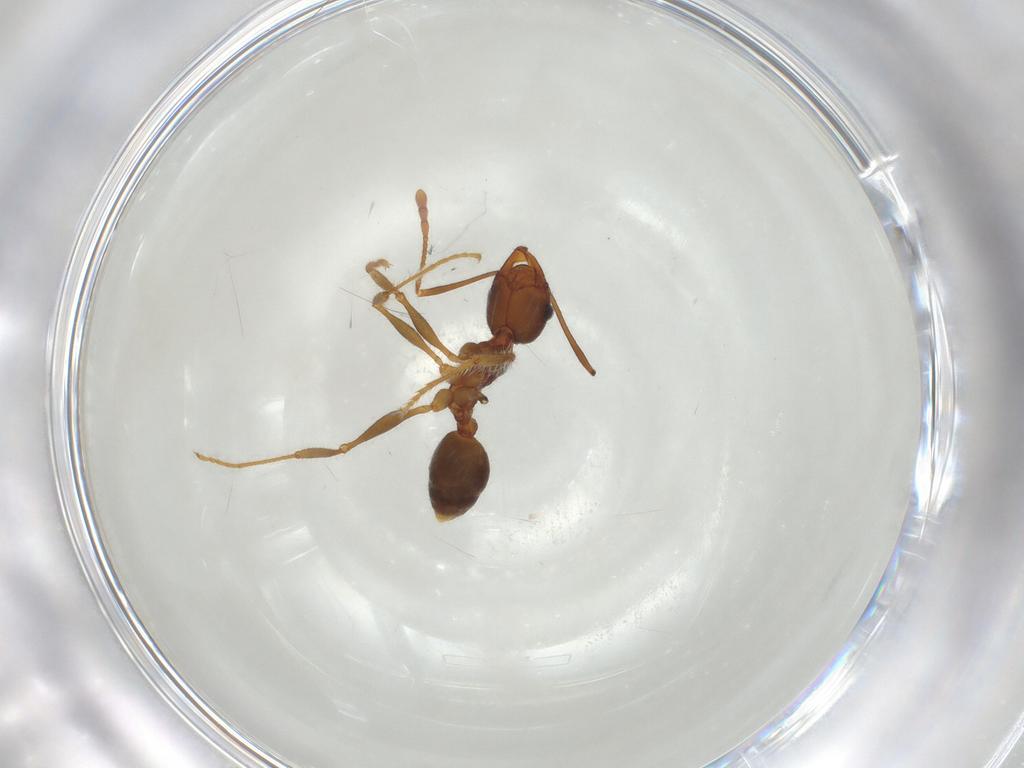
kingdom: Animalia
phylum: Arthropoda
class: Insecta
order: Hymenoptera
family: Formicidae
